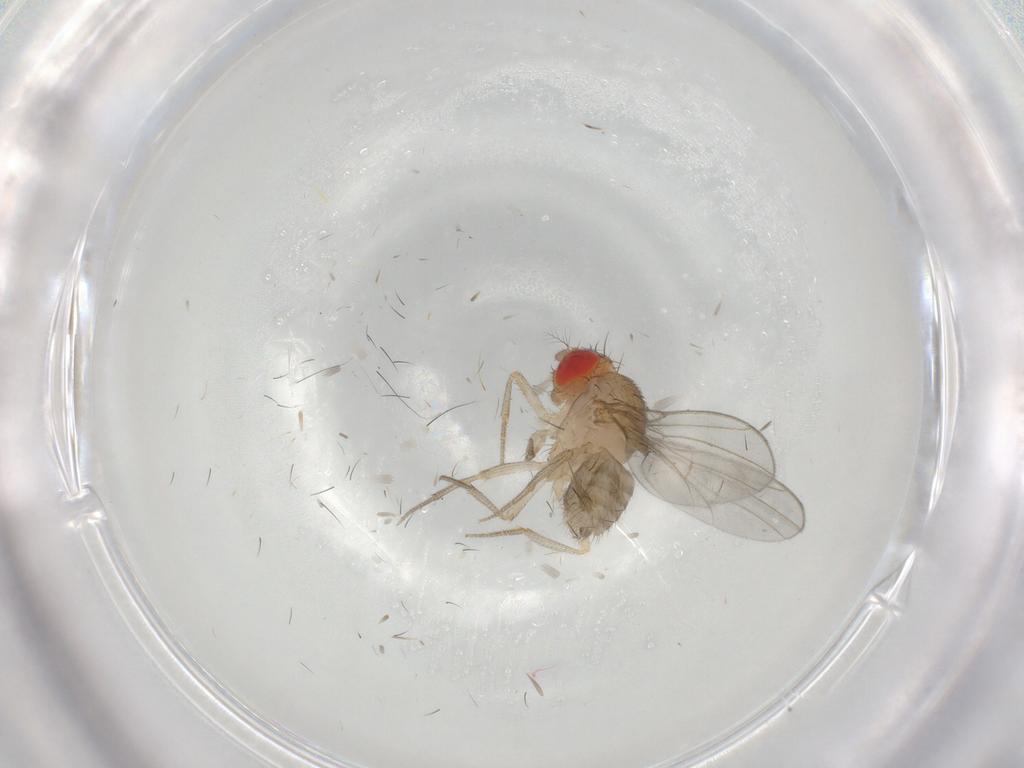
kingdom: Animalia
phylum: Arthropoda
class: Insecta
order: Diptera
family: Drosophilidae
